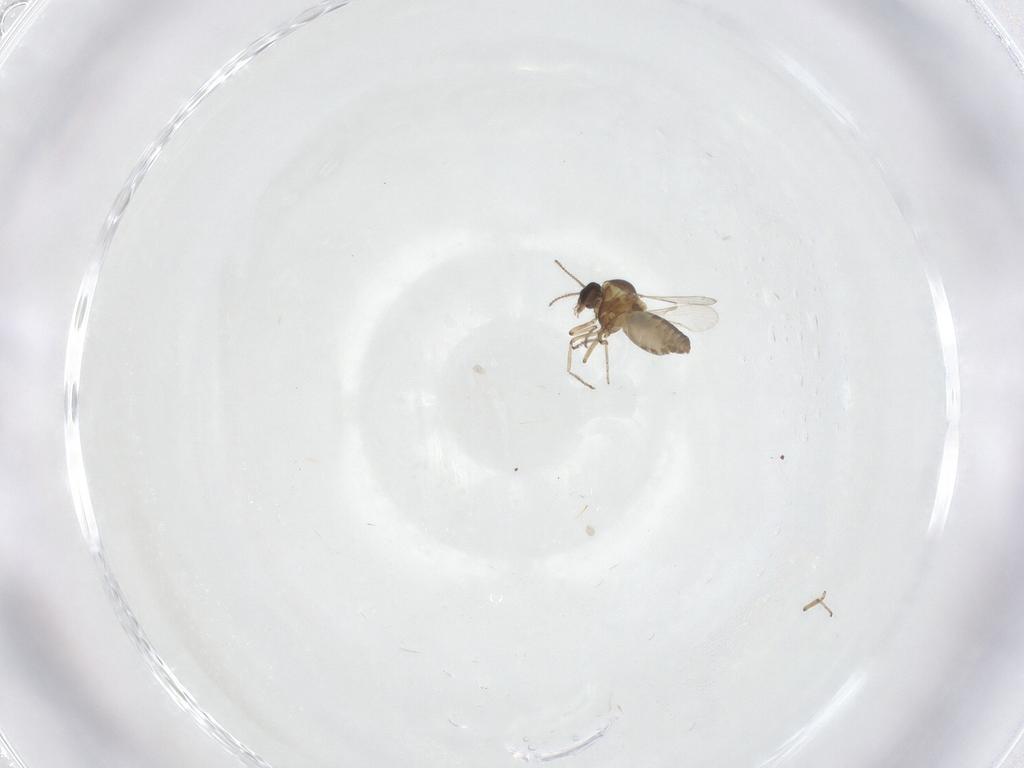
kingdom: Animalia
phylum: Arthropoda
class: Insecta
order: Diptera
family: Ceratopogonidae
